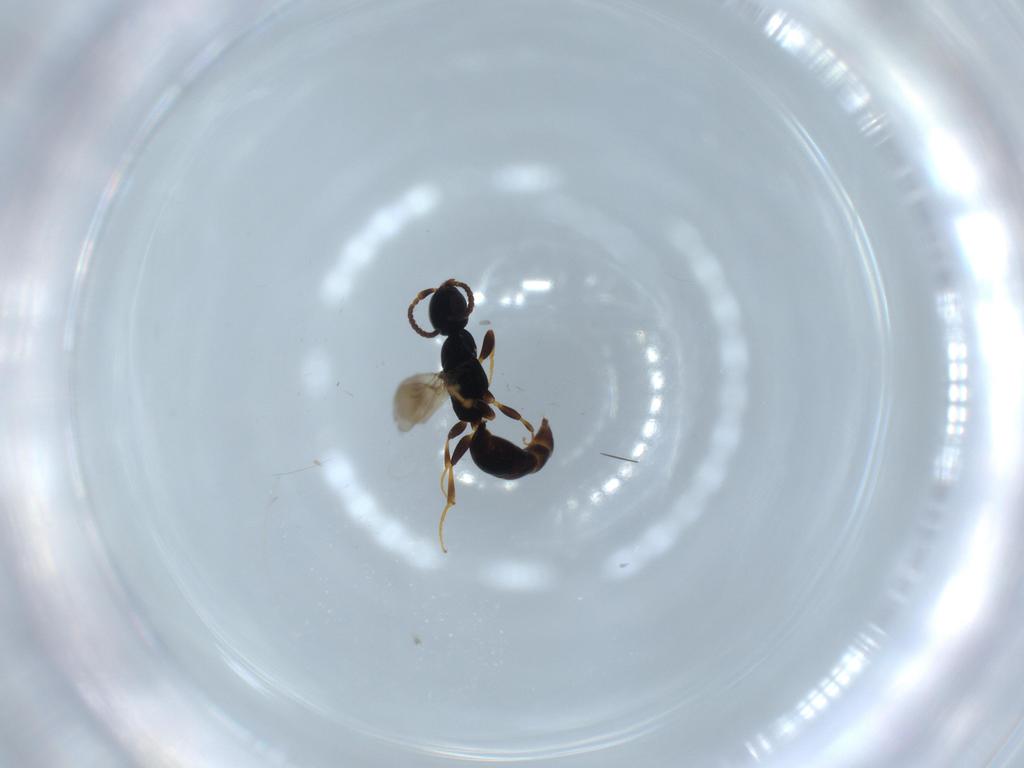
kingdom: Animalia
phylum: Arthropoda
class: Insecta
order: Hymenoptera
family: Bethylidae
